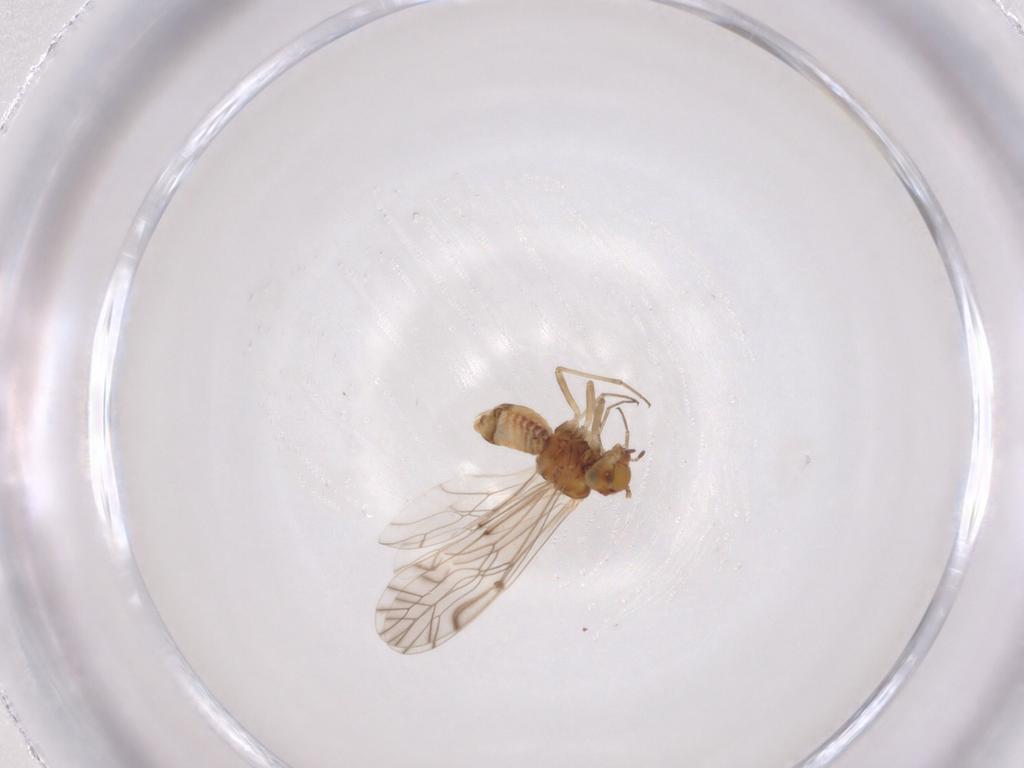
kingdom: Animalia
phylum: Arthropoda
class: Insecta
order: Psocodea
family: Lachesillidae
